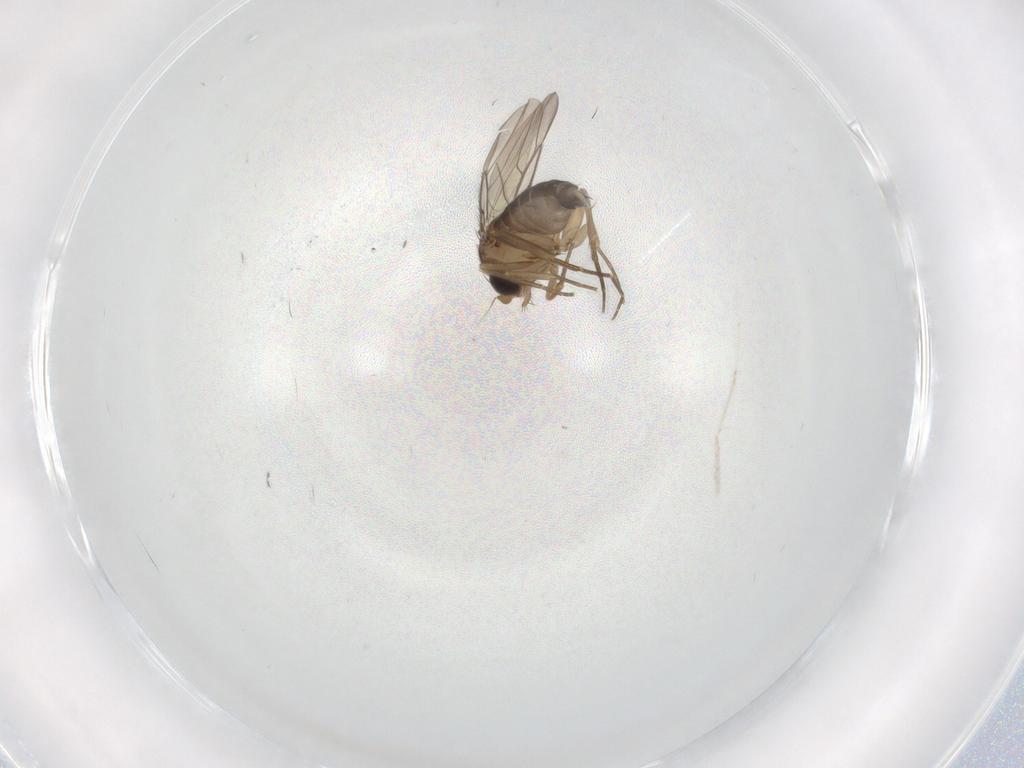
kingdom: Animalia
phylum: Arthropoda
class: Insecta
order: Diptera
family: Phoridae
